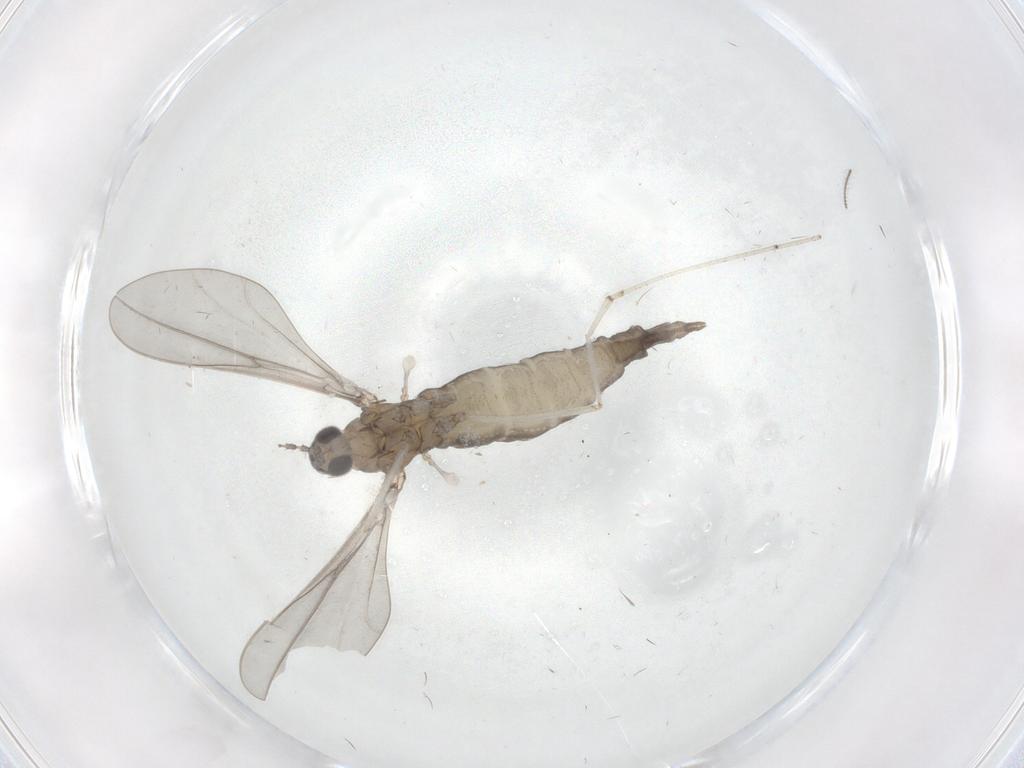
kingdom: Animalia
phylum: Arthropoda
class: Insecta
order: Diptera
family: Cecidomyiidae
